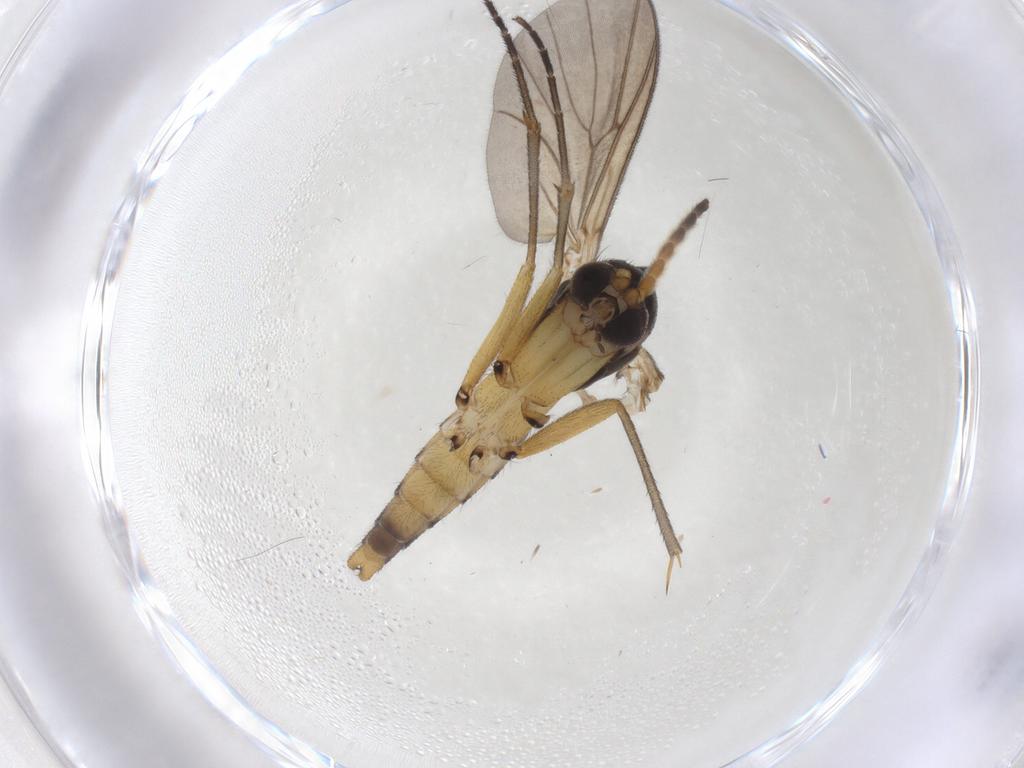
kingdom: Animalia
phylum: Arthropoda
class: Insecta
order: Diptera
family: Mycetophilidae
